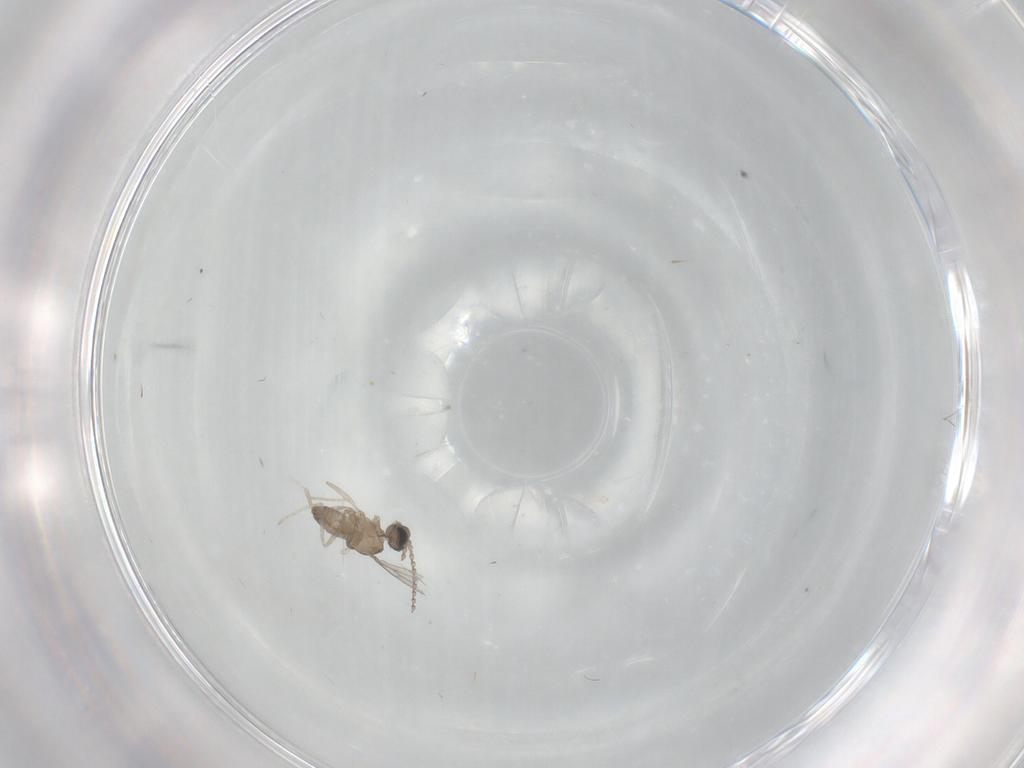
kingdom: Animalia
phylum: Arthropoda
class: Insecta
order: Diptera
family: Cecidomyiidae
